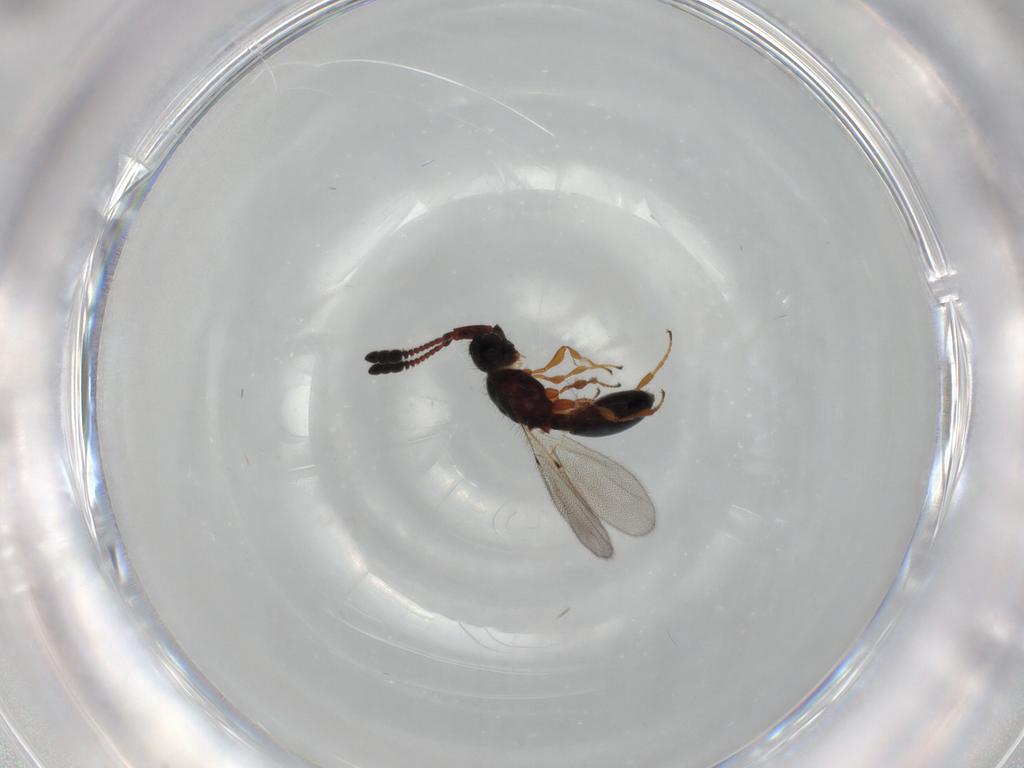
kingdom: Animalia
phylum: Arthropoda
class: Insecta
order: Hymenoptera
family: Diapriidae
